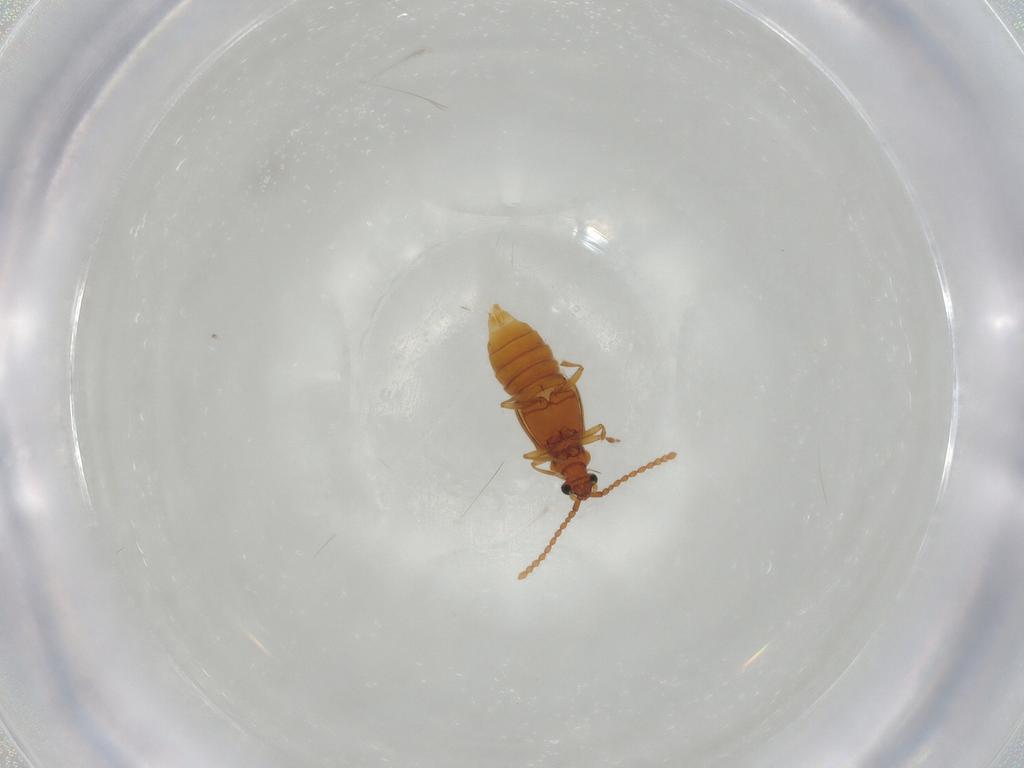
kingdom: Animalia
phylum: Arthropoda
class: Insecta
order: Coleoptera
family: Staphylinidae
